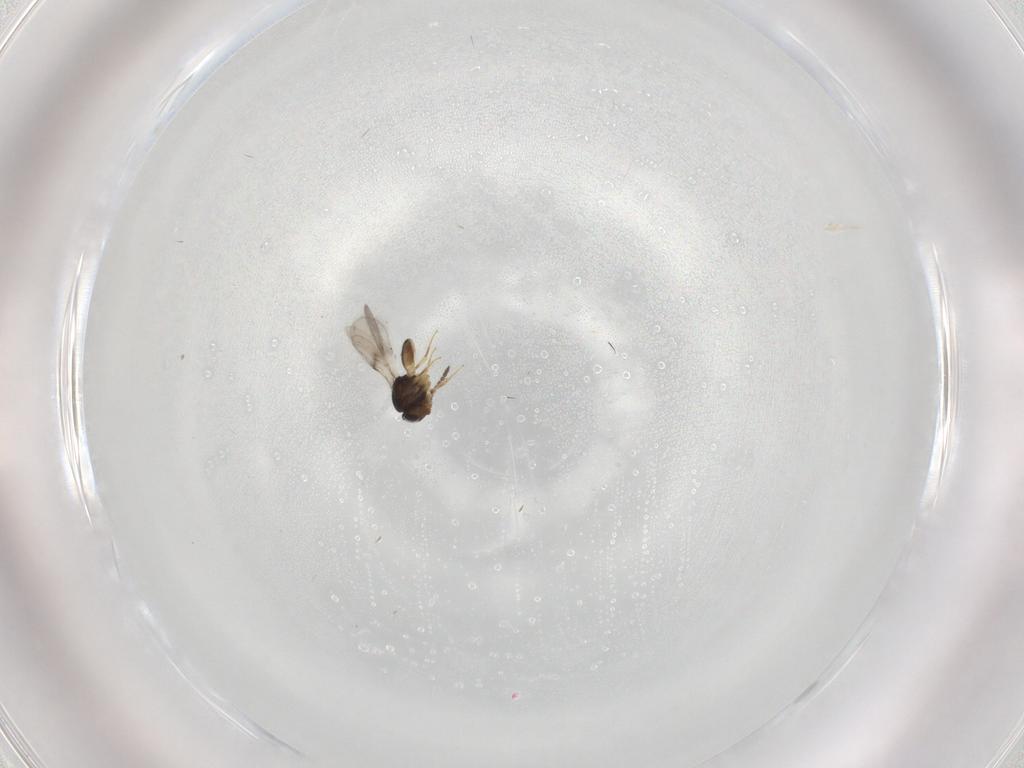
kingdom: Animalia
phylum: Arthropoda
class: Insecta
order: Hymenoptera
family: Scelionidae
